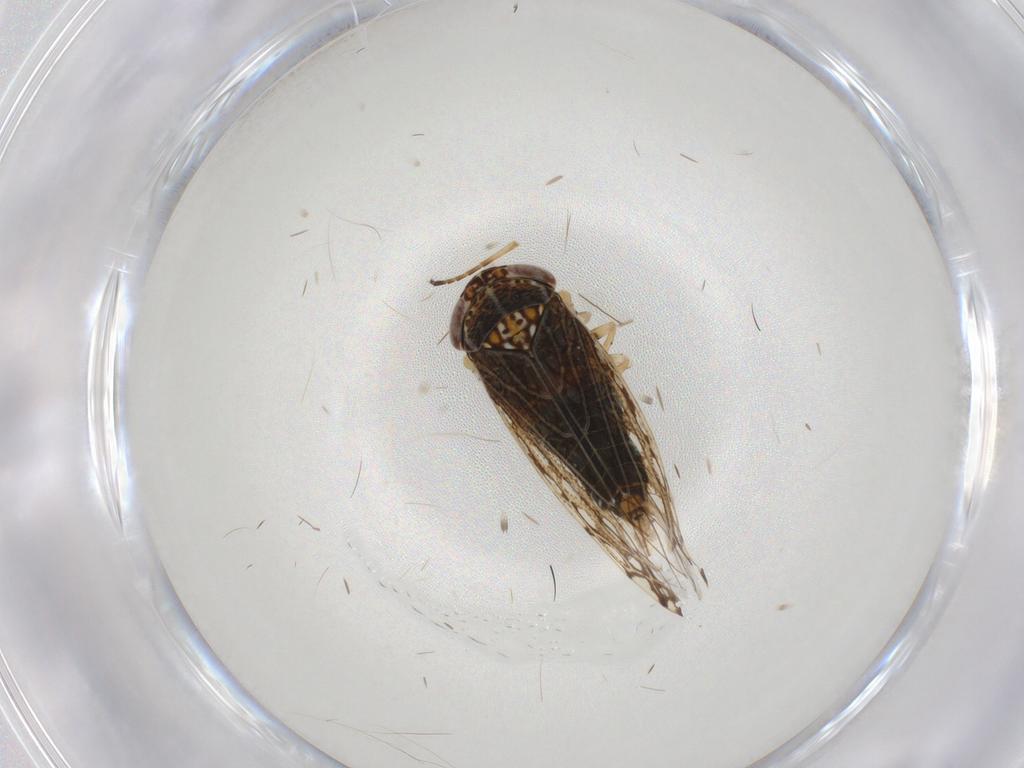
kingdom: Animalia
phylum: Arthropoda
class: Insecta
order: Hemiptera
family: Cicadellidae
